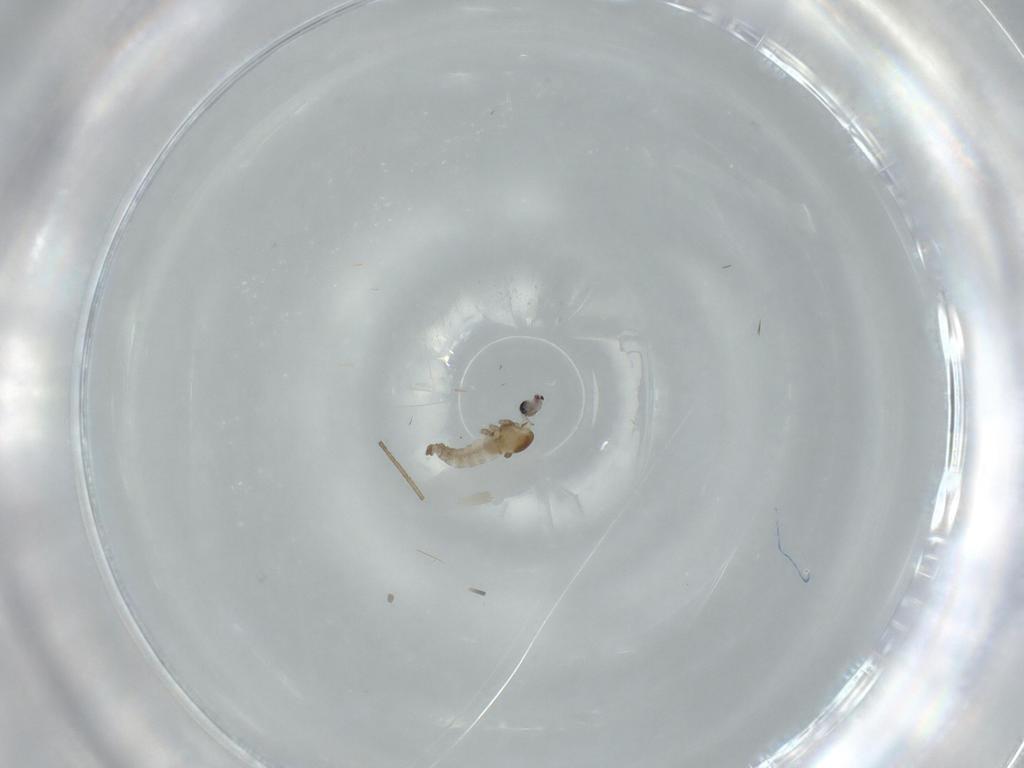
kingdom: Animalia
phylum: Arthropoda
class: Insecta
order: Diptera
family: Cecidomyiidae
